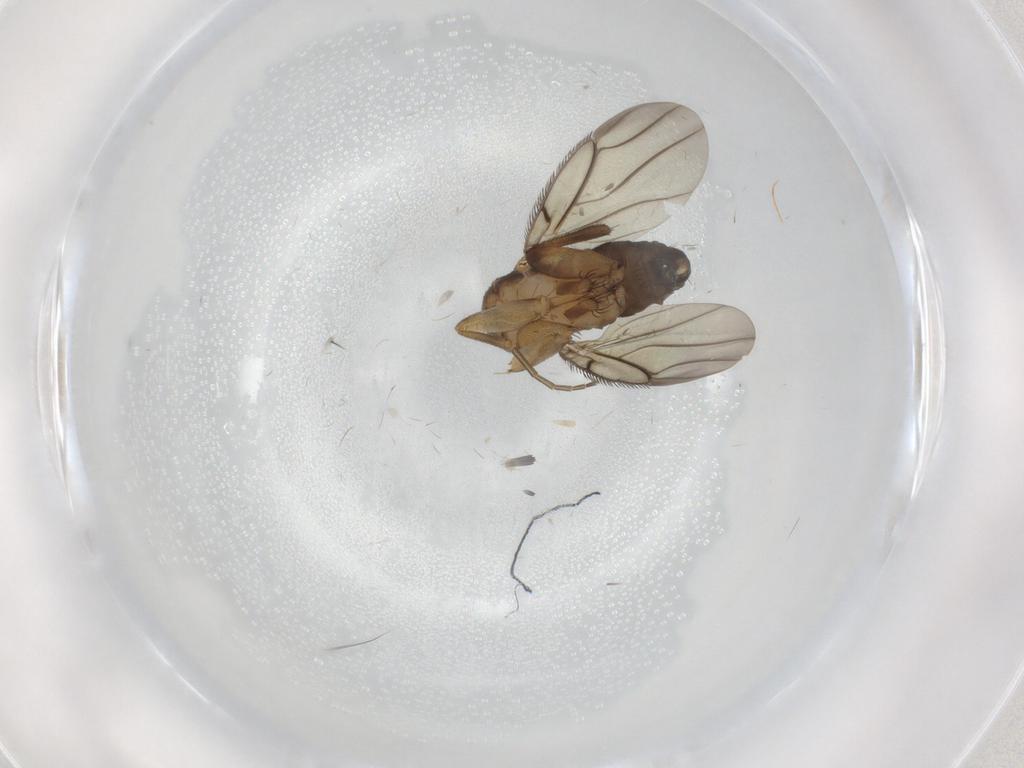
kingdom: Animalia
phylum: Arthropoda
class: Insecta
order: Diptera
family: Phoridae
